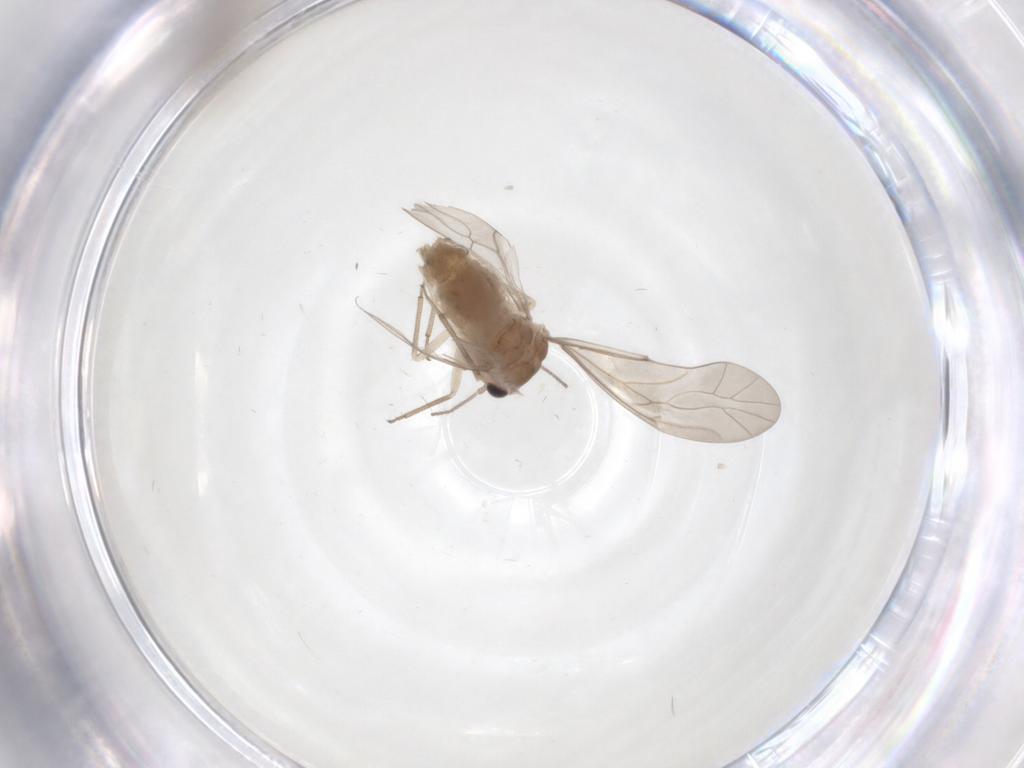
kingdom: Animalia
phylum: Arthropoda
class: Insecta
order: Psocodea
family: Peripsocidae
